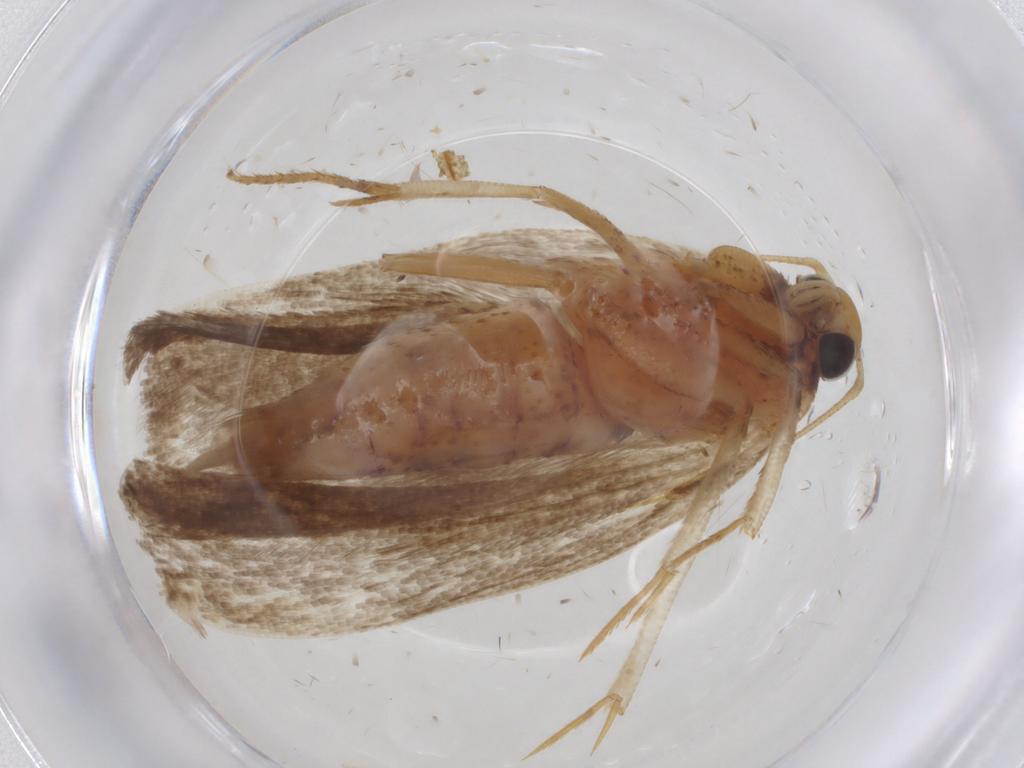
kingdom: Animalia
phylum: Arthropoda
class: Insecta
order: Lepidoptera
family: Gelechiidae
